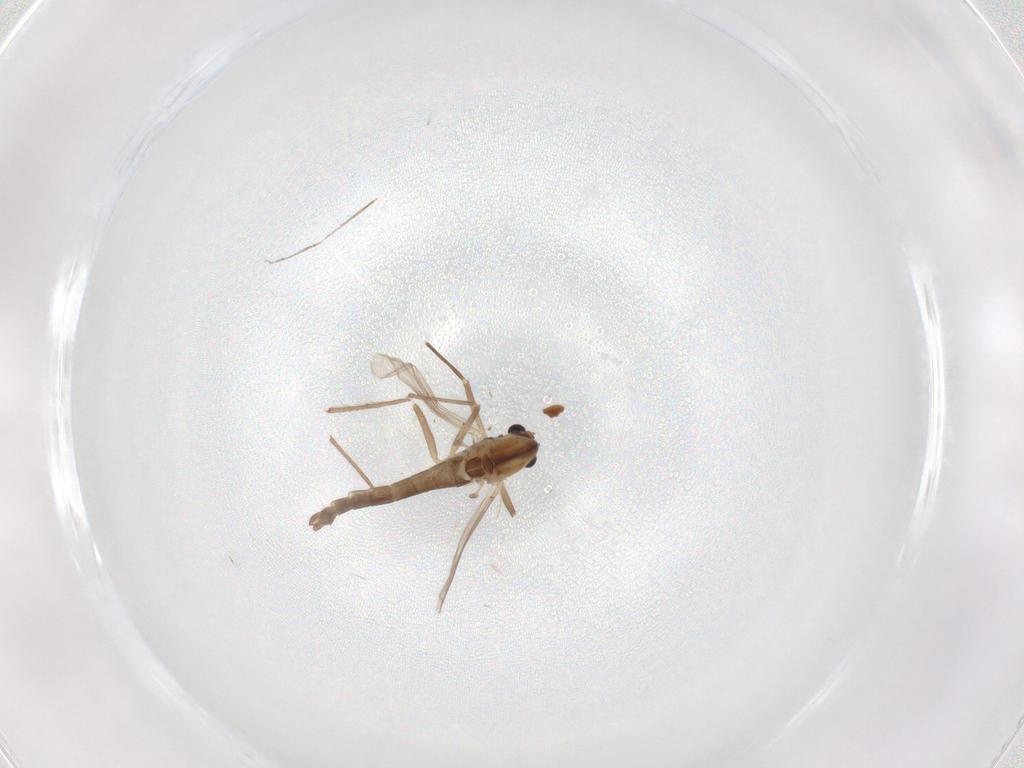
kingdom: Animalia
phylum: Arthropoda
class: Insecta
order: Diptera
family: Chironomidae
